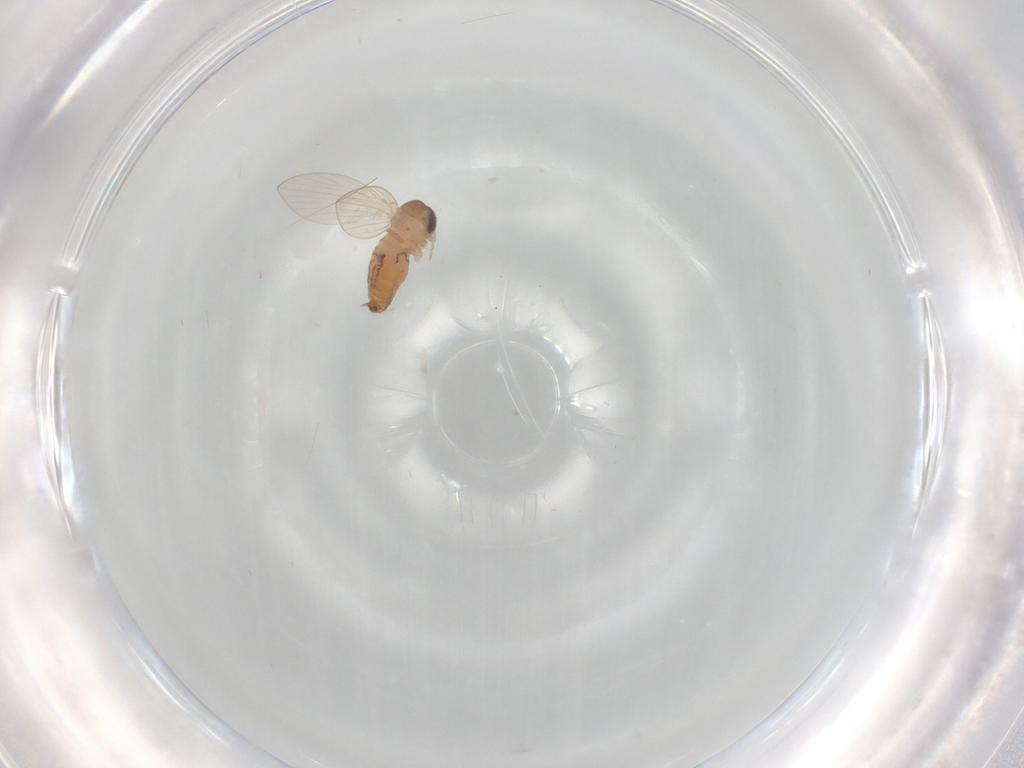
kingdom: Animalia
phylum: Arthropoda
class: Insecta
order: Diptera
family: Psychodidae
